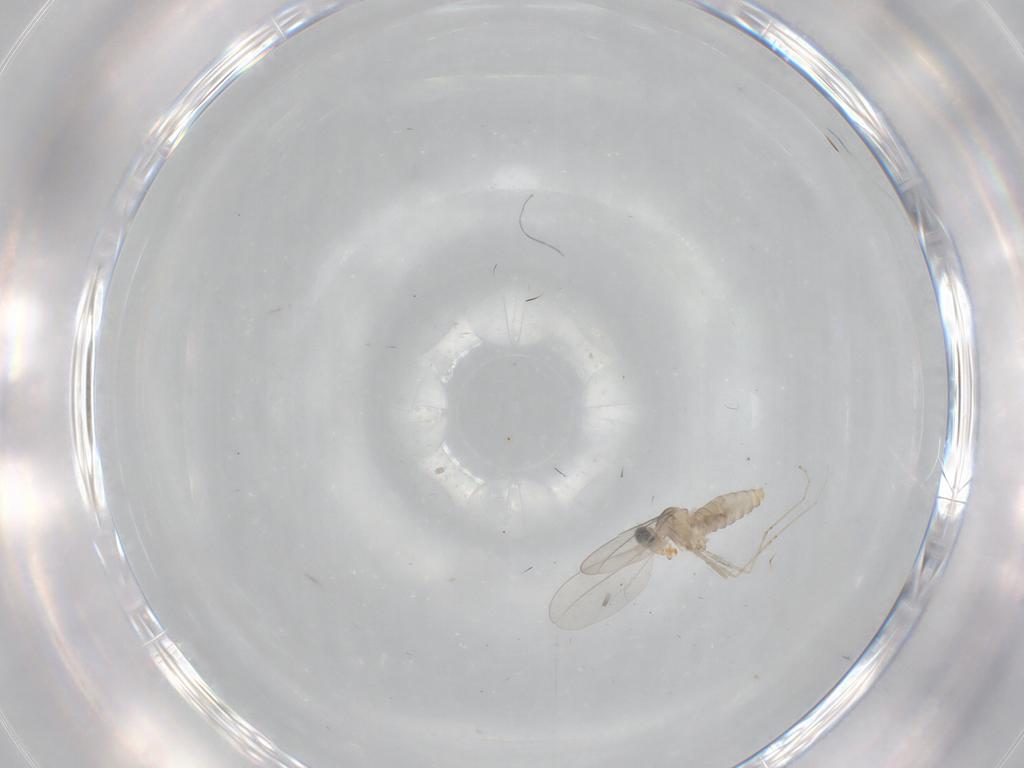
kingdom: Animalia
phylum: Arthropoda
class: Insecta
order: Diptera
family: Cecidomyiidae
